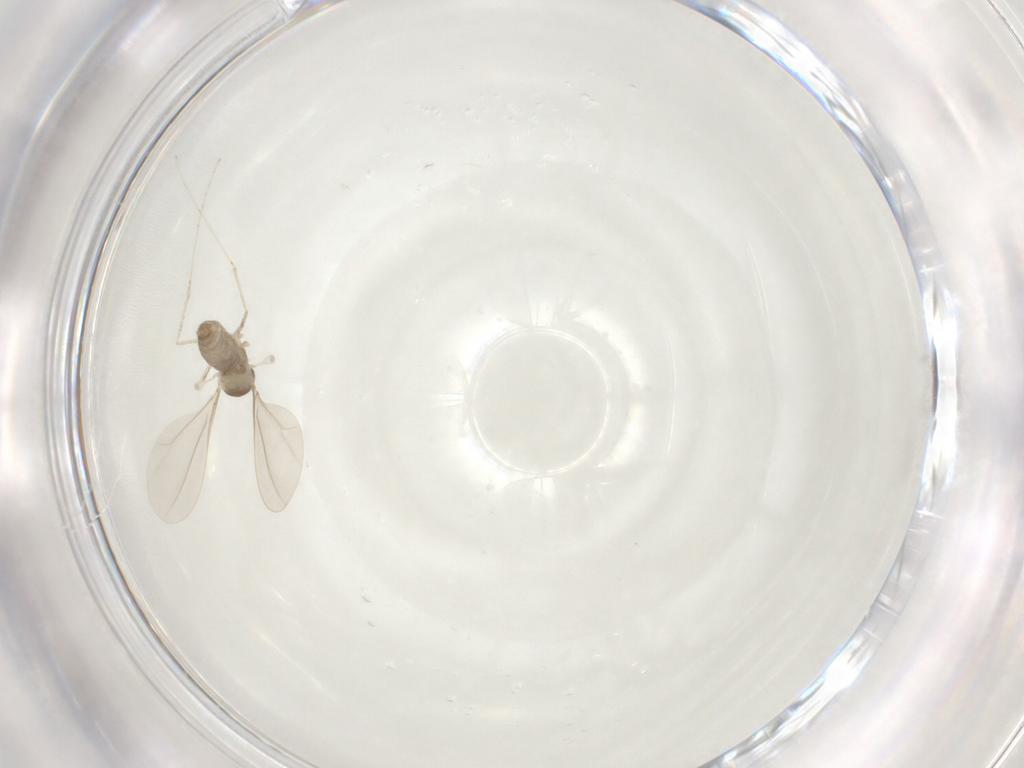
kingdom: Animalia
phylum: Arthropoda
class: Insecta
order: Diptera
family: Cecidomyiidae
